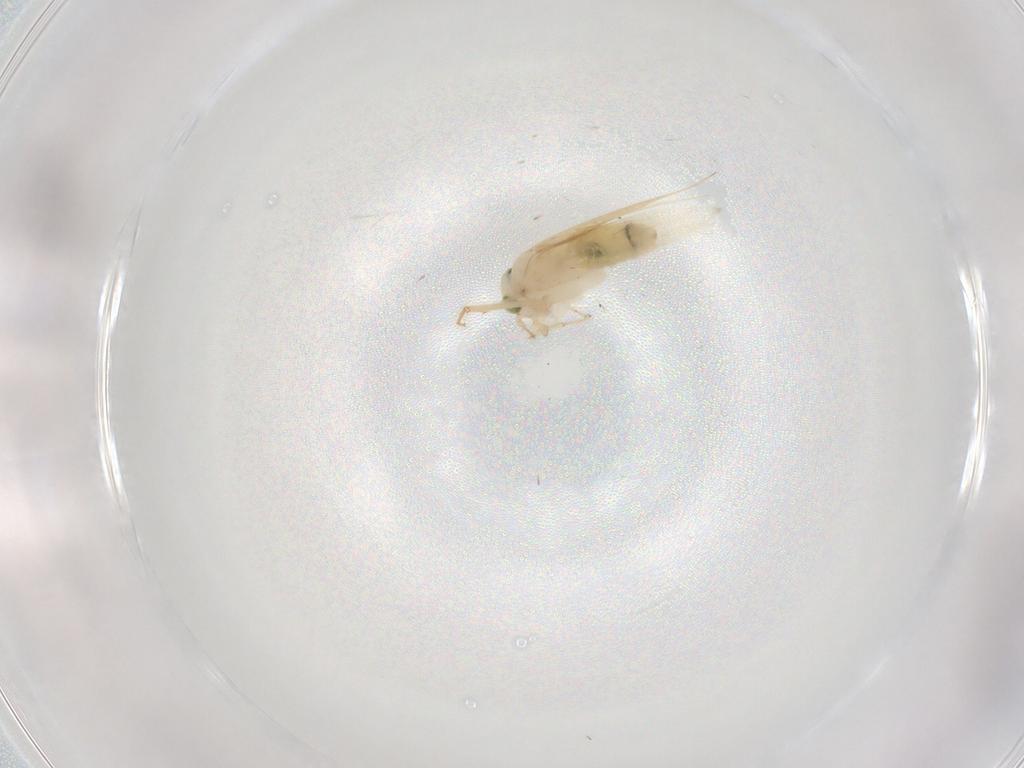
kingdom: Animalia
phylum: Arthropoda
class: Insecta
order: Psocodea
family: Lepidopsocidae
